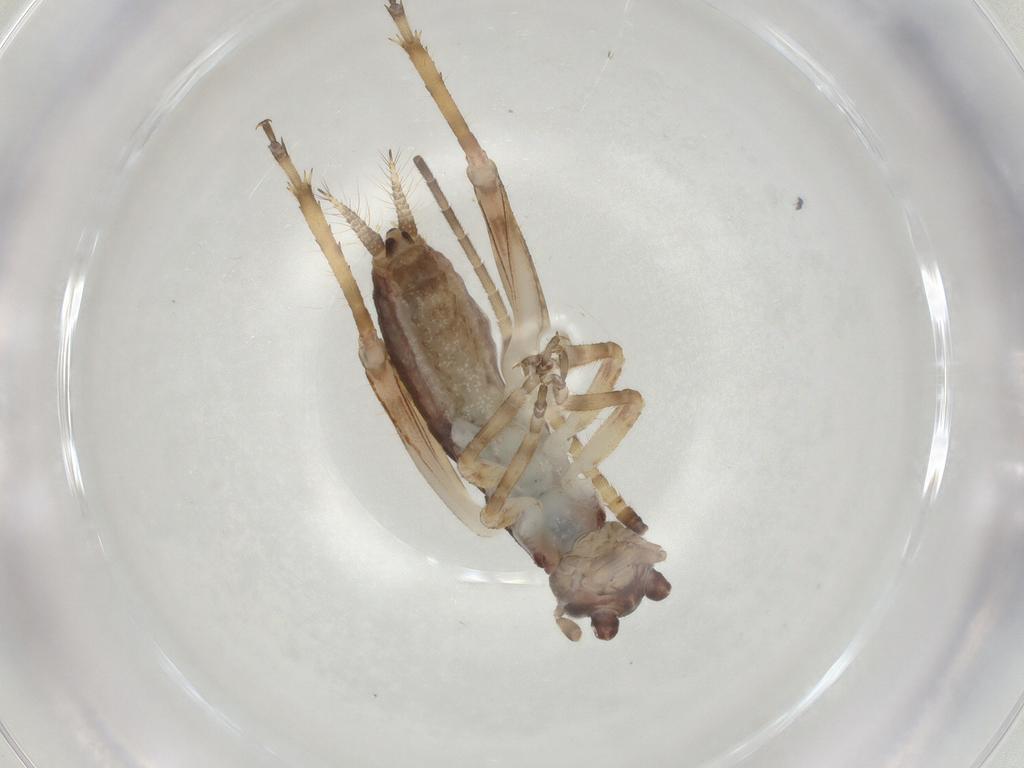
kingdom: Animalia
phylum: Arthropoda
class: Insecta
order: Orthoptera
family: Gryllidae
